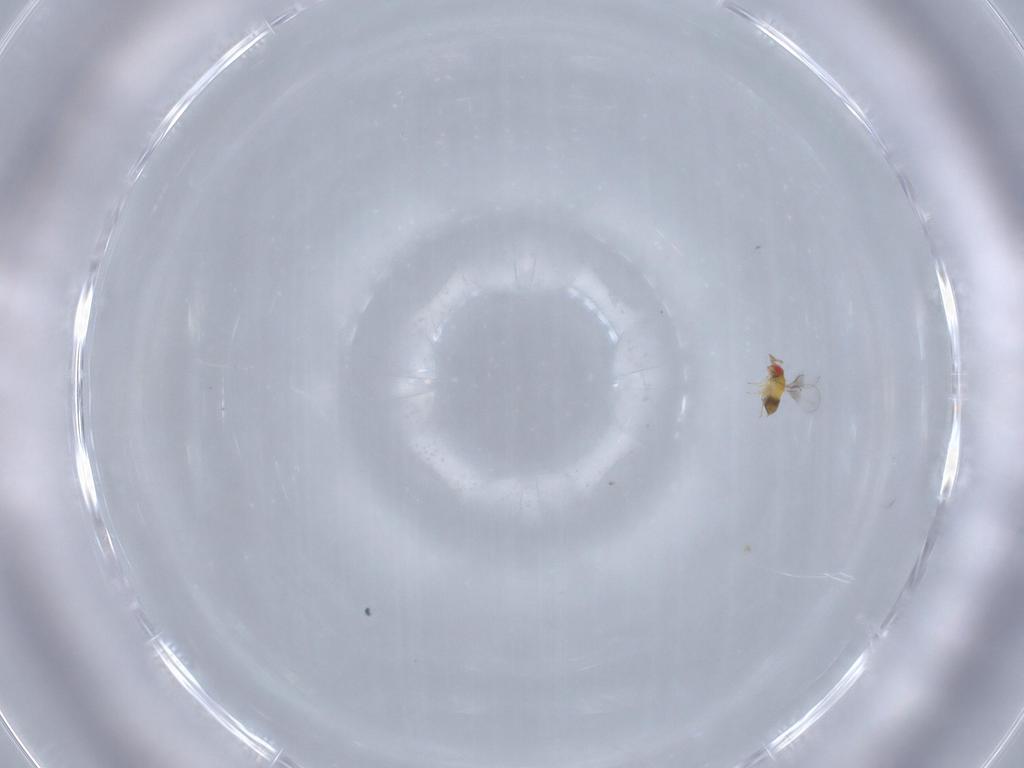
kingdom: Animalia
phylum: Arthropoda
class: Insecta
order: Hymenoptera
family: Trichogrammatidae
